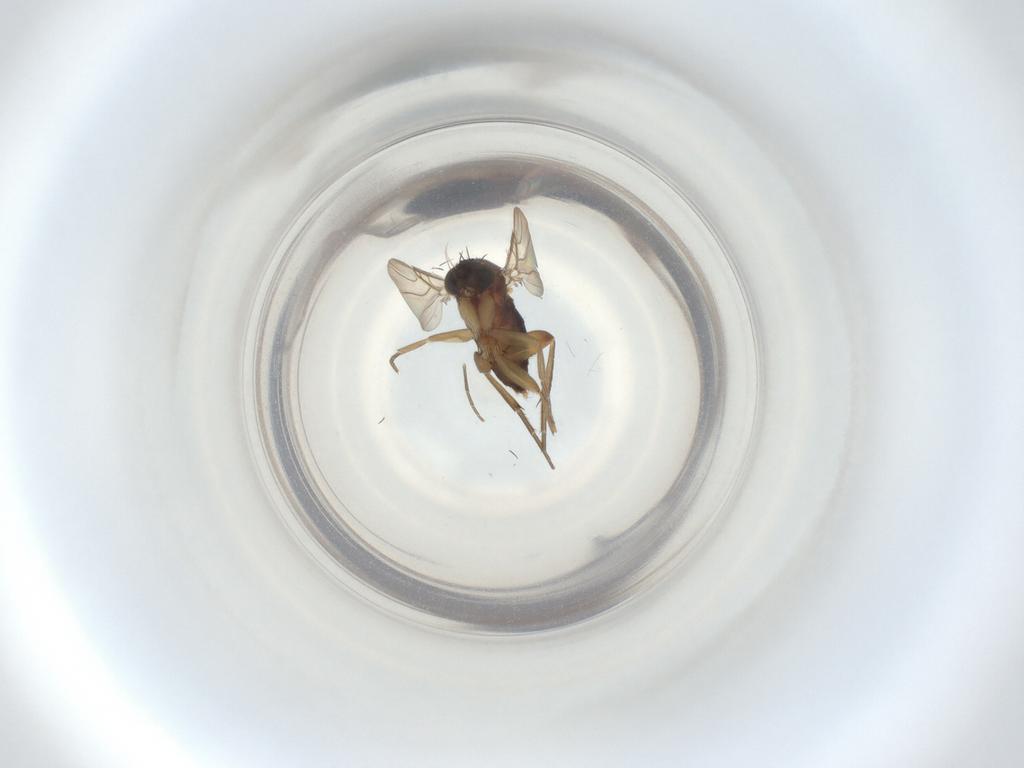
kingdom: Animalia
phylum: Arthropoda
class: Insecta
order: Diptera
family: Phoridae
